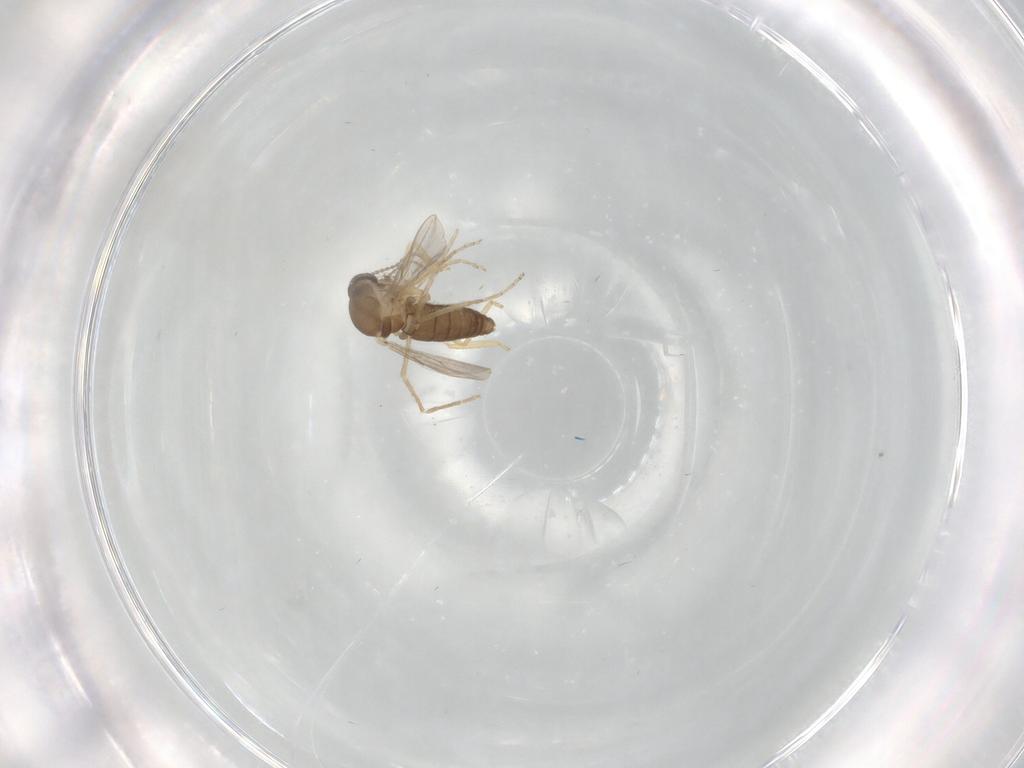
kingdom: Animalia
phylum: Arthropoda
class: Insecta
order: Diptera
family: Ceratopogonidae
